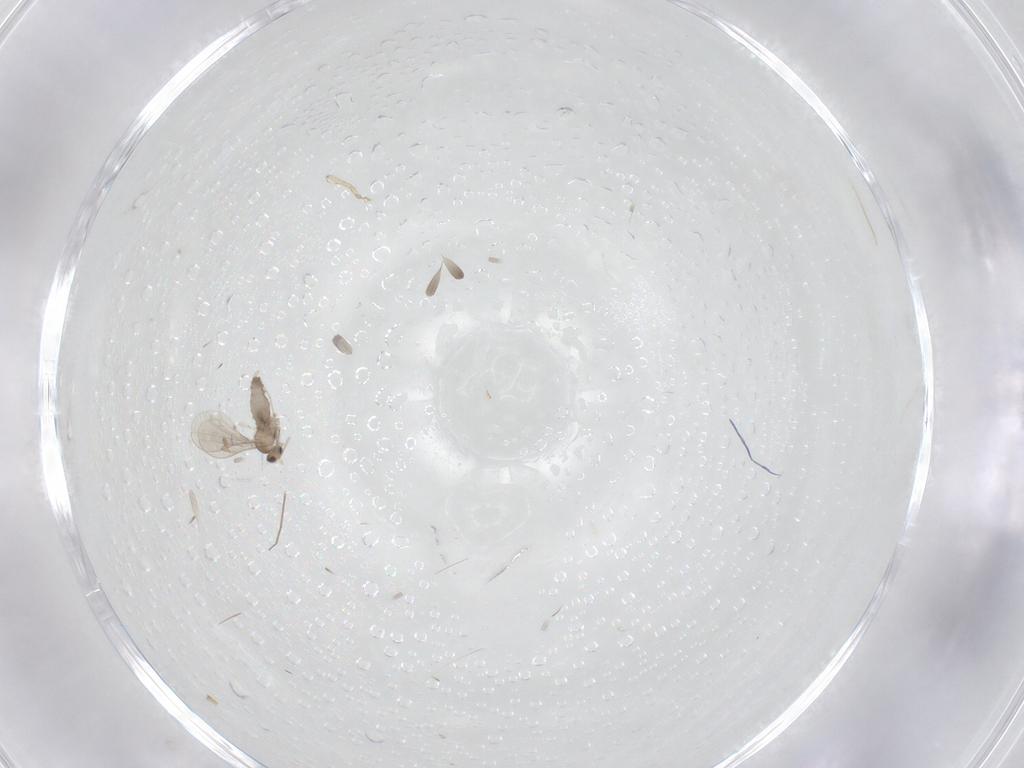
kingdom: Animalia
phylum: Arthropoda
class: Insecta
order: Diptera
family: Chironomidae
